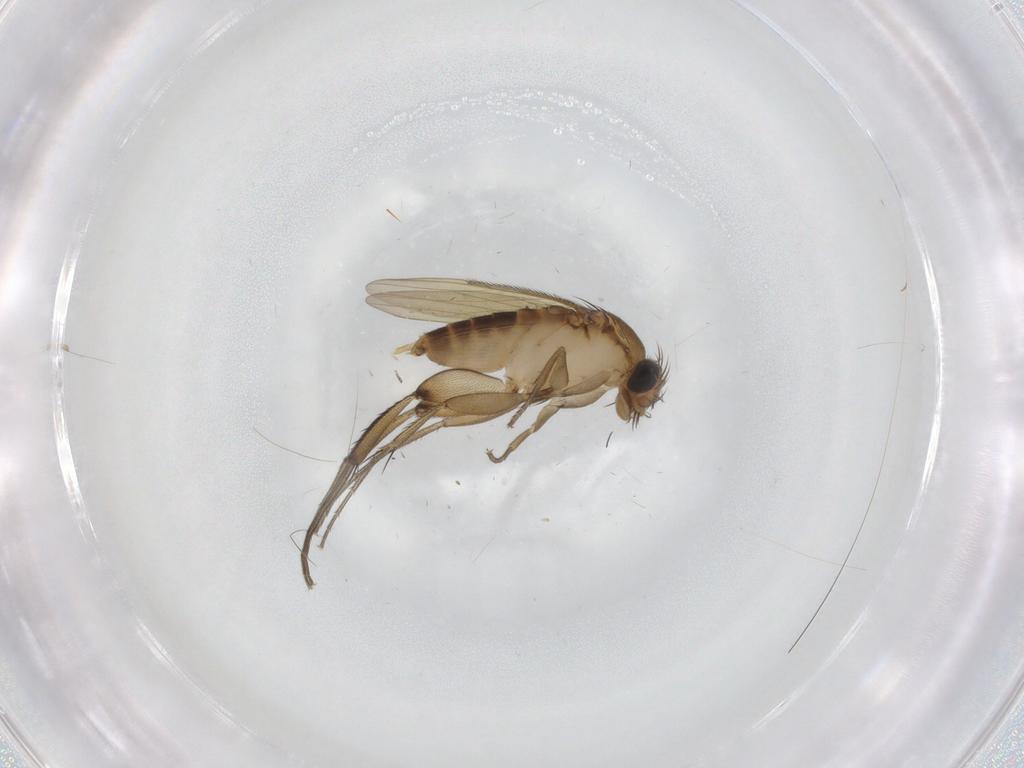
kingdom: Animalia
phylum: Arthropoda
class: Insecta
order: Diptera
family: Phoridae
